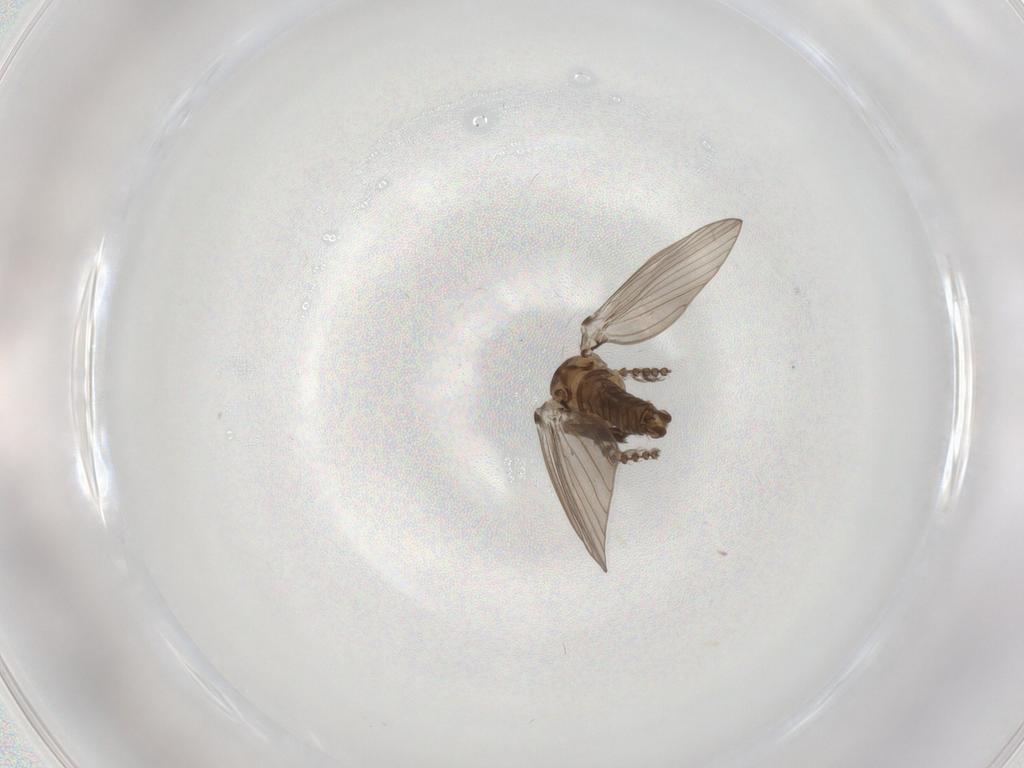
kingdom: Animalia
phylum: Arthropoda
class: Insecta
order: Diptera
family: Psychodidae
